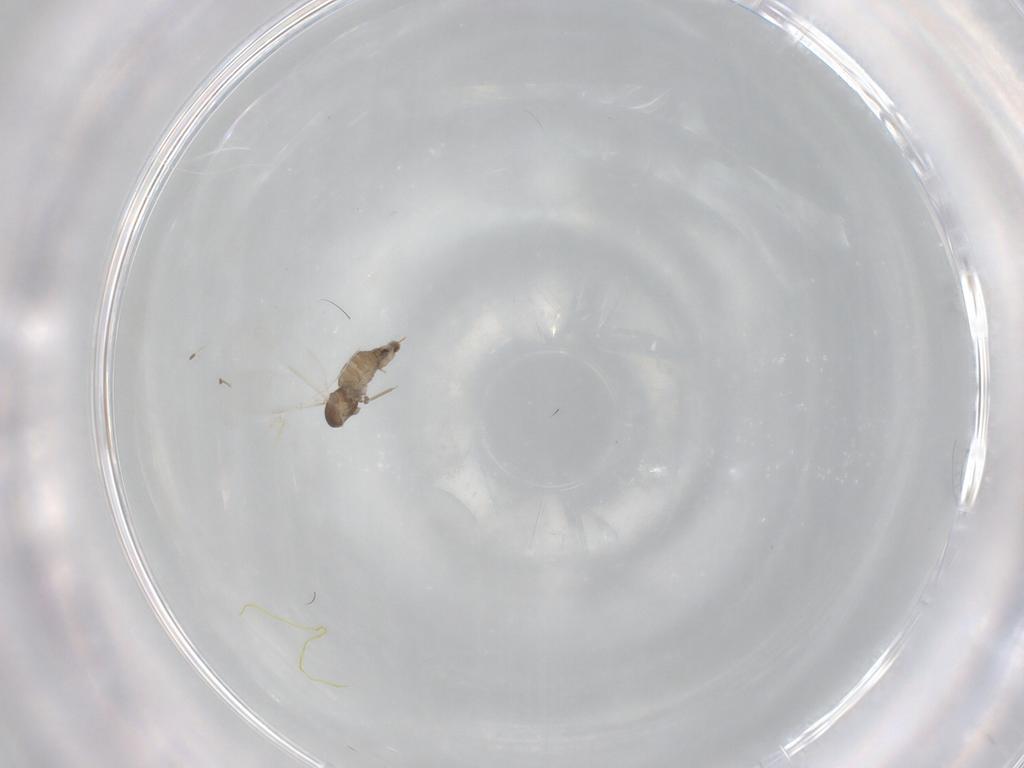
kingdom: Animalia
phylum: Arthropoda
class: Insecta
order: Diptera
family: Cecidomyiidae
